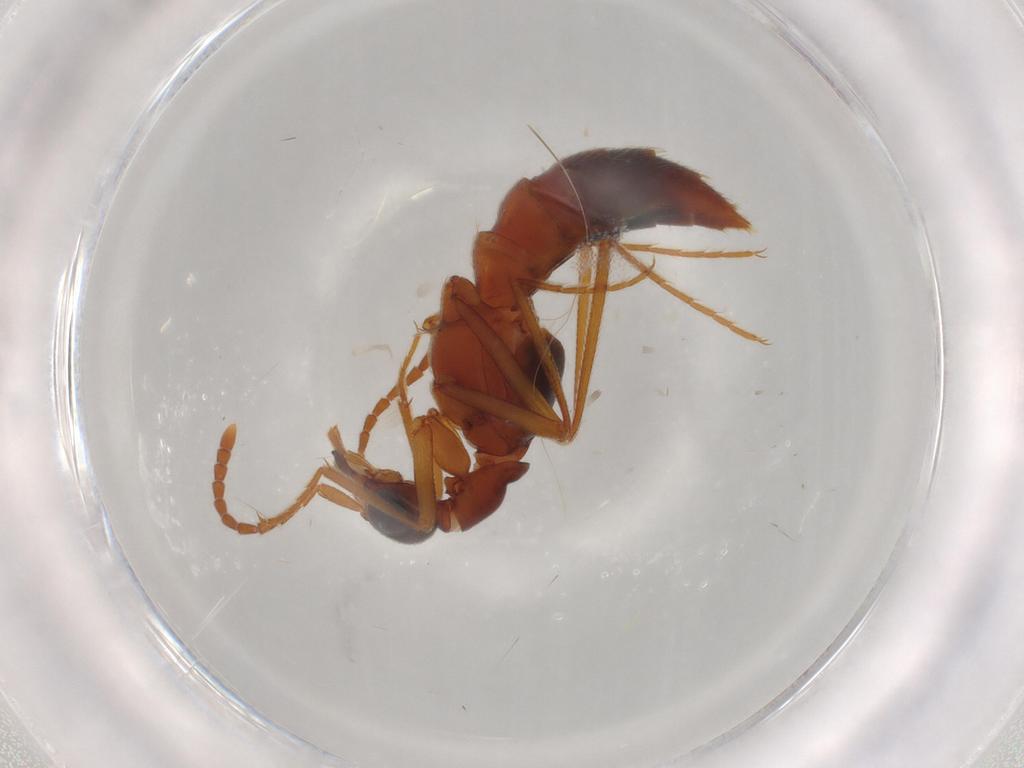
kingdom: Animalia
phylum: Arthropoda
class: Insecta
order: Coleoptera
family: Staphylinidae
